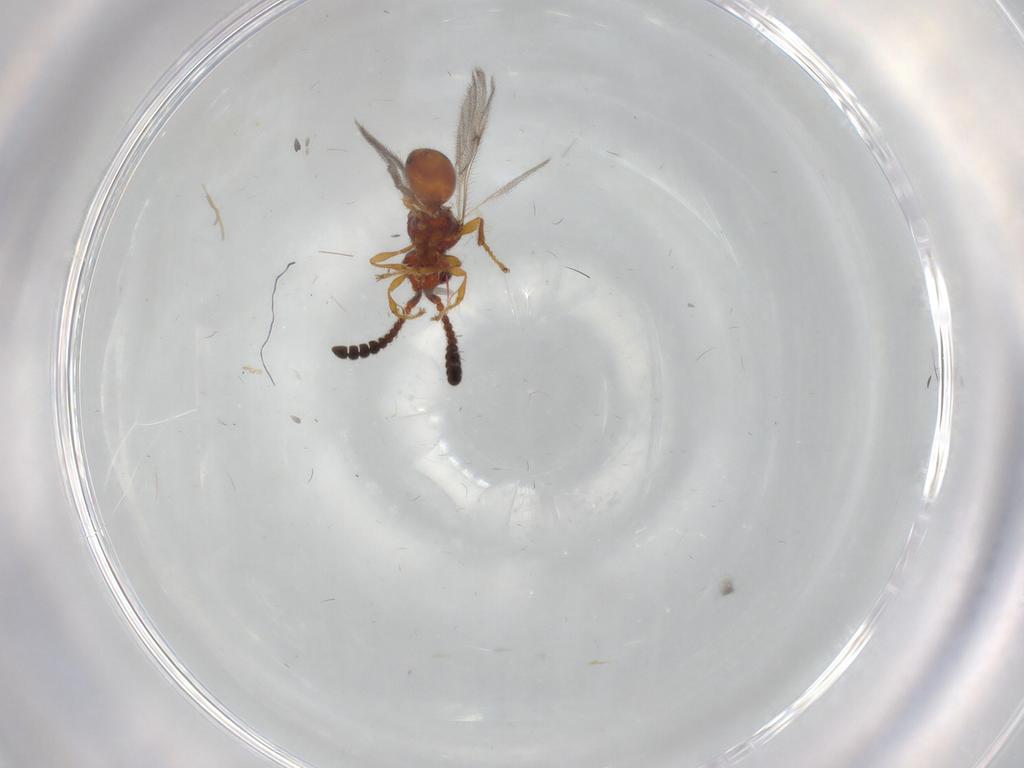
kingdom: Animalia
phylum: Arthropoda
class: Insecta
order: Hymenoptera
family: Diapriidae
